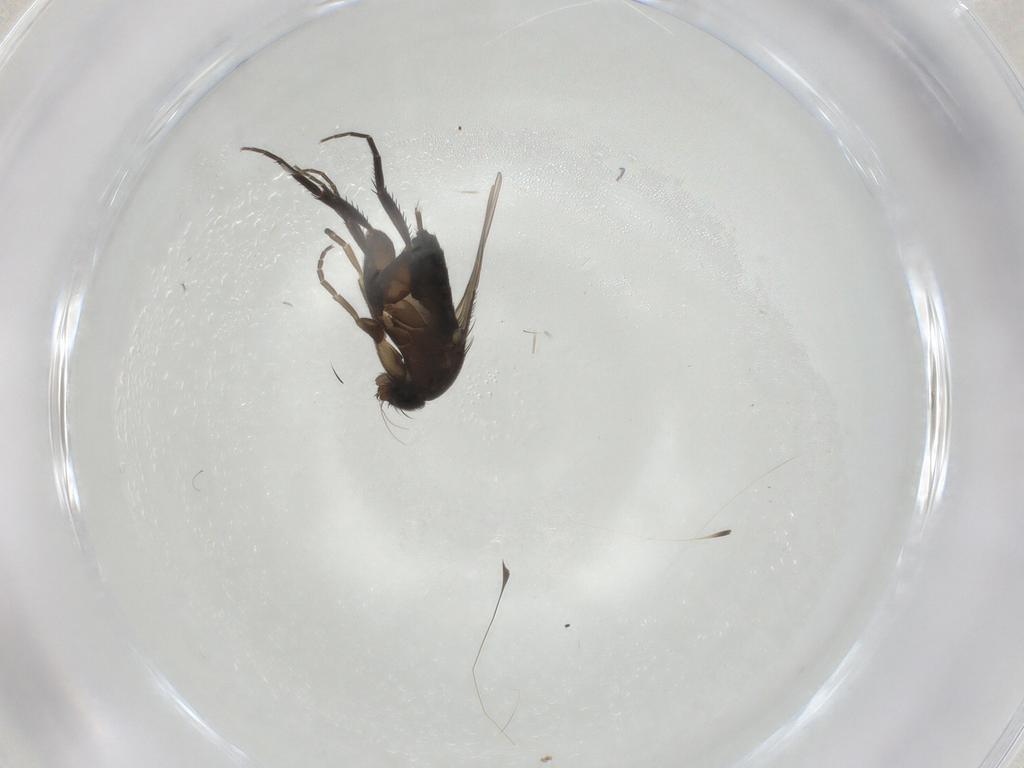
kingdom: Animalia
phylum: Arthropoda
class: Insecta
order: Diptera
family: Phoridae
